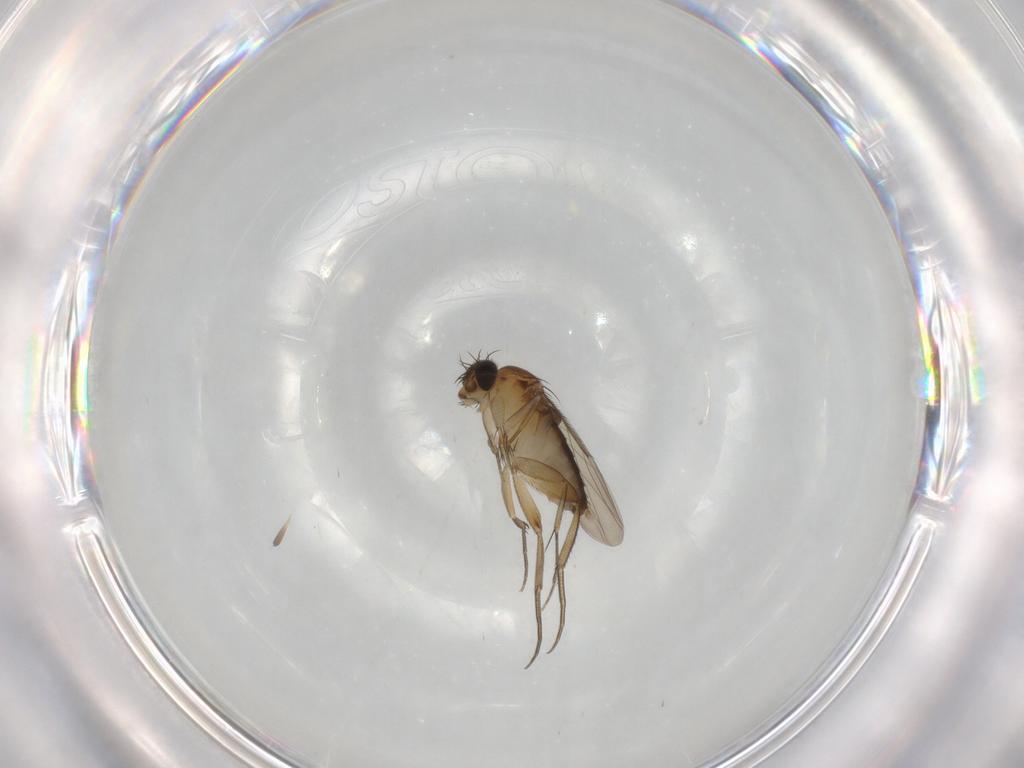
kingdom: Animalia
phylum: Arthropoda
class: Insecta
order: Diptera
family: Phoridae
